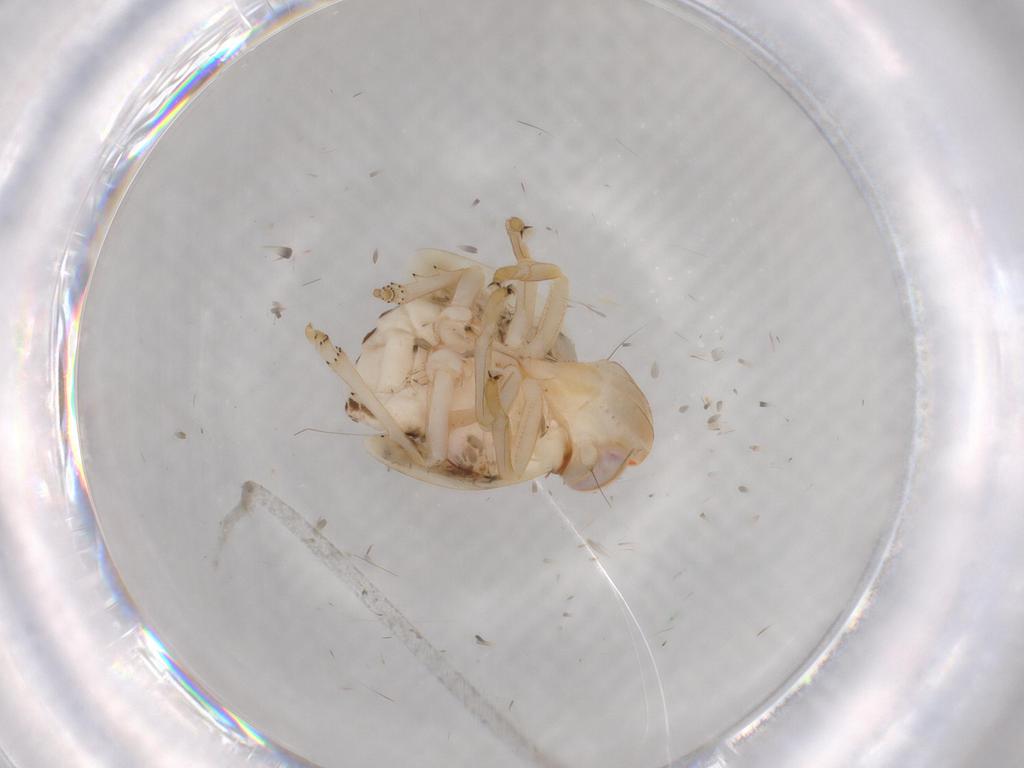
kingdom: Animalia
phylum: Arthropoda
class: Insecta
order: Hemiptera
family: Nogodinidae
